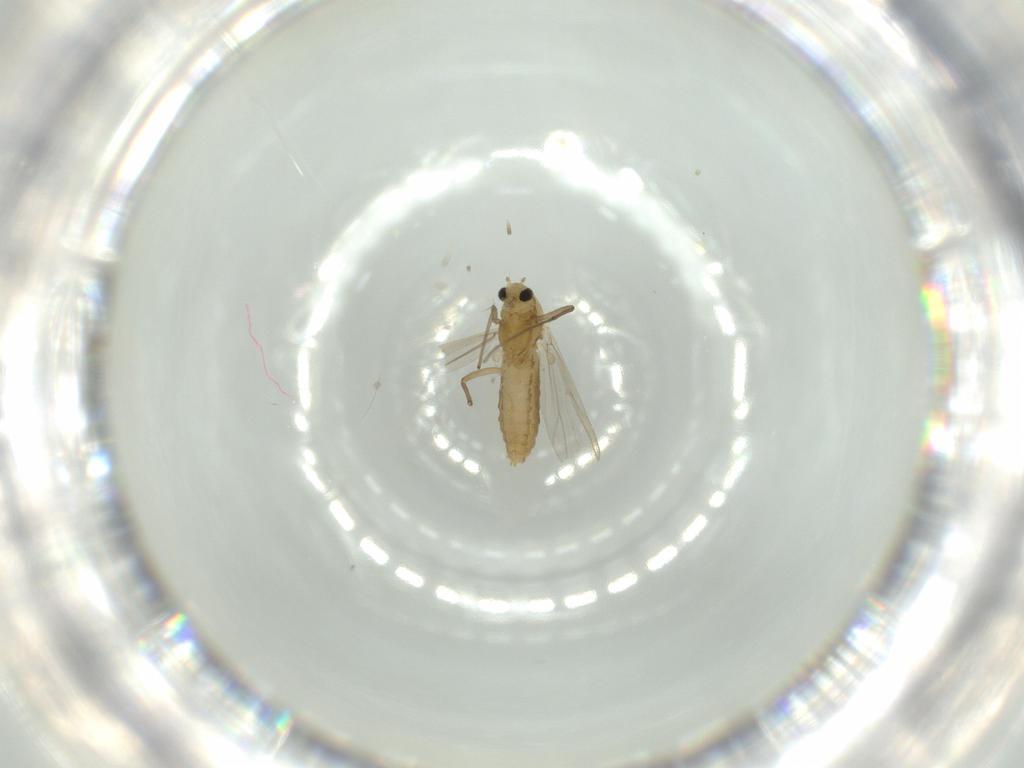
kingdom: Animalia
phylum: Arthropoda
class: Insecta
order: Diptera
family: Chironomidae
